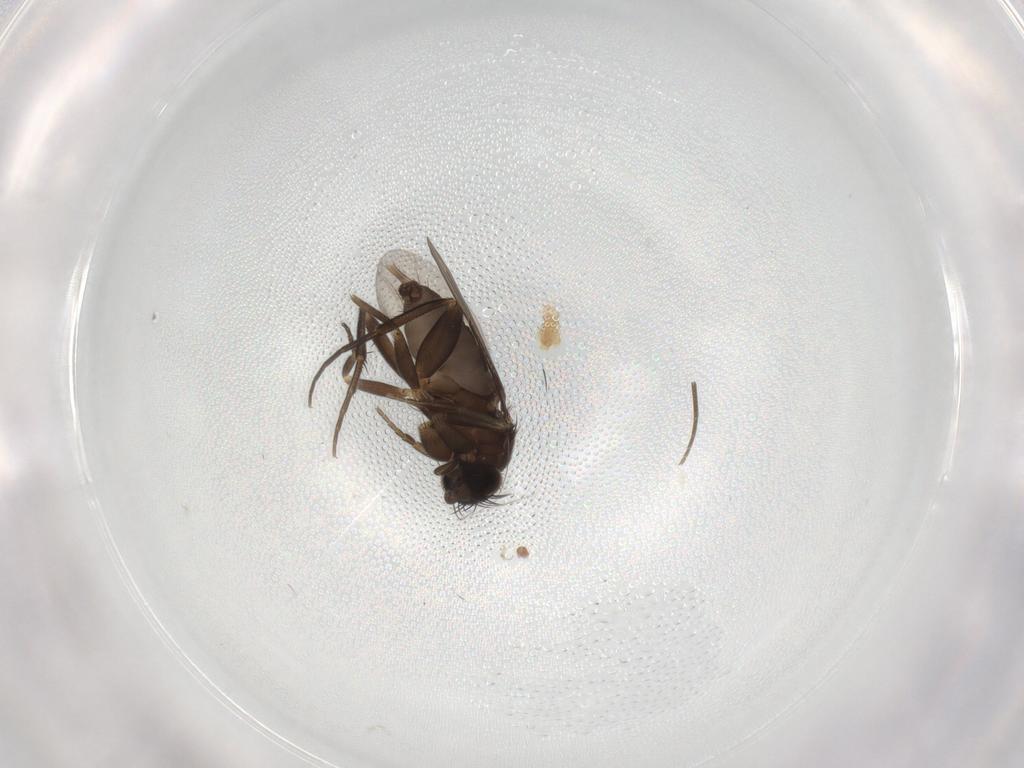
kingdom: Animalia
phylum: Arthropoda
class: Insecta
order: Diptera
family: Phoridae
